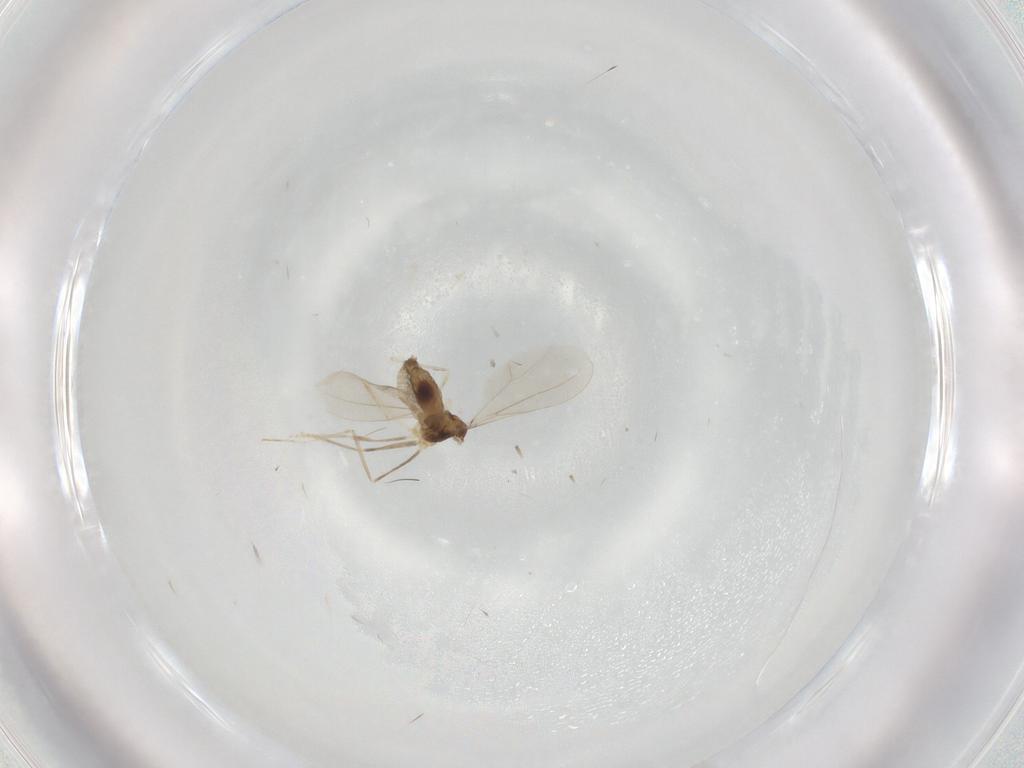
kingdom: Animalia
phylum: Arthropoda
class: Insecta
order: Diptera
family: Cecidomyiidae
